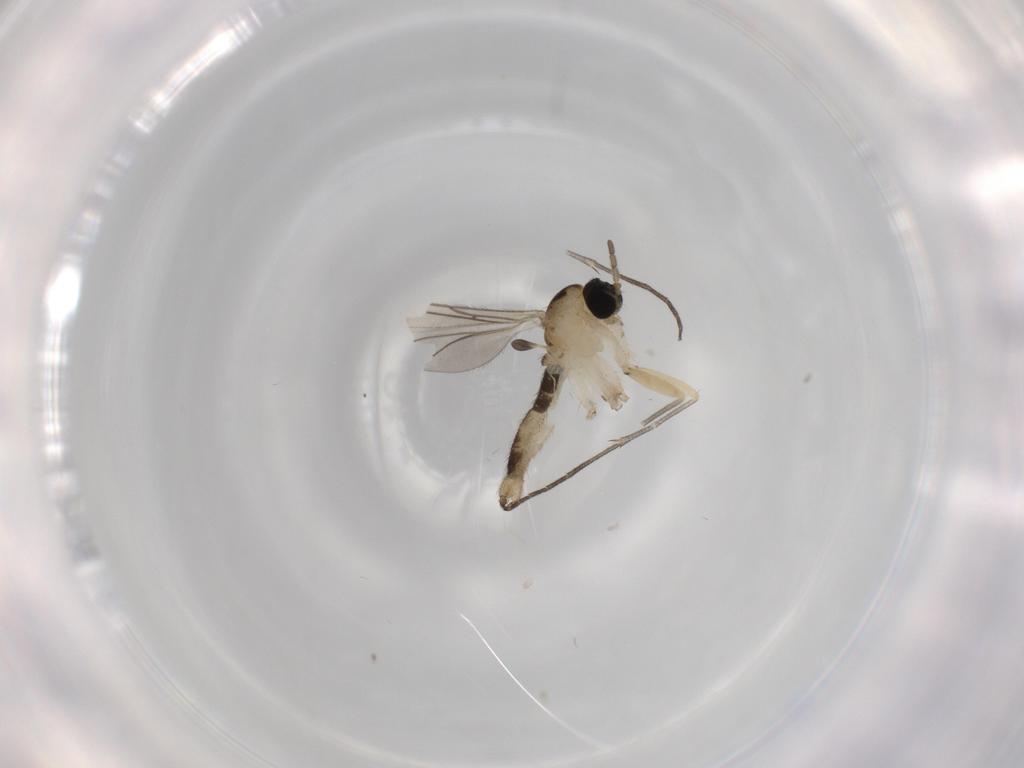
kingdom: Animalia
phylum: Arthropoda
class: Insecta
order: Diptera
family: Sciaridae
